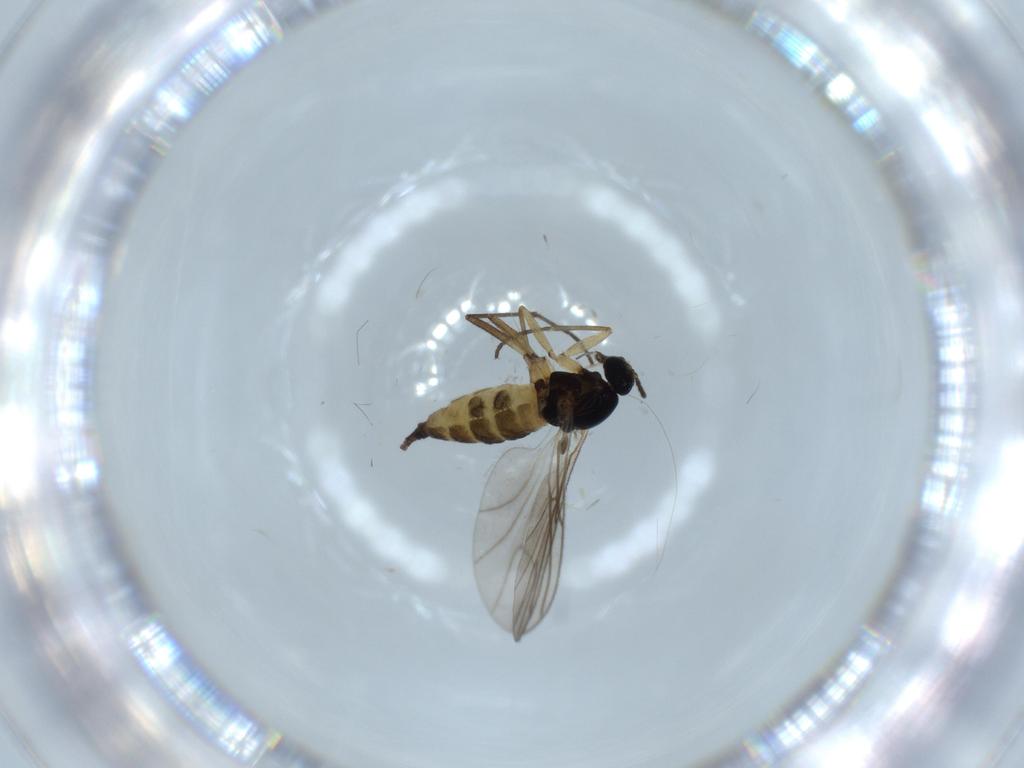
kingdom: Animalia
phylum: Arthropoda
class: Insecta
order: Diptera
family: Sciaridae
